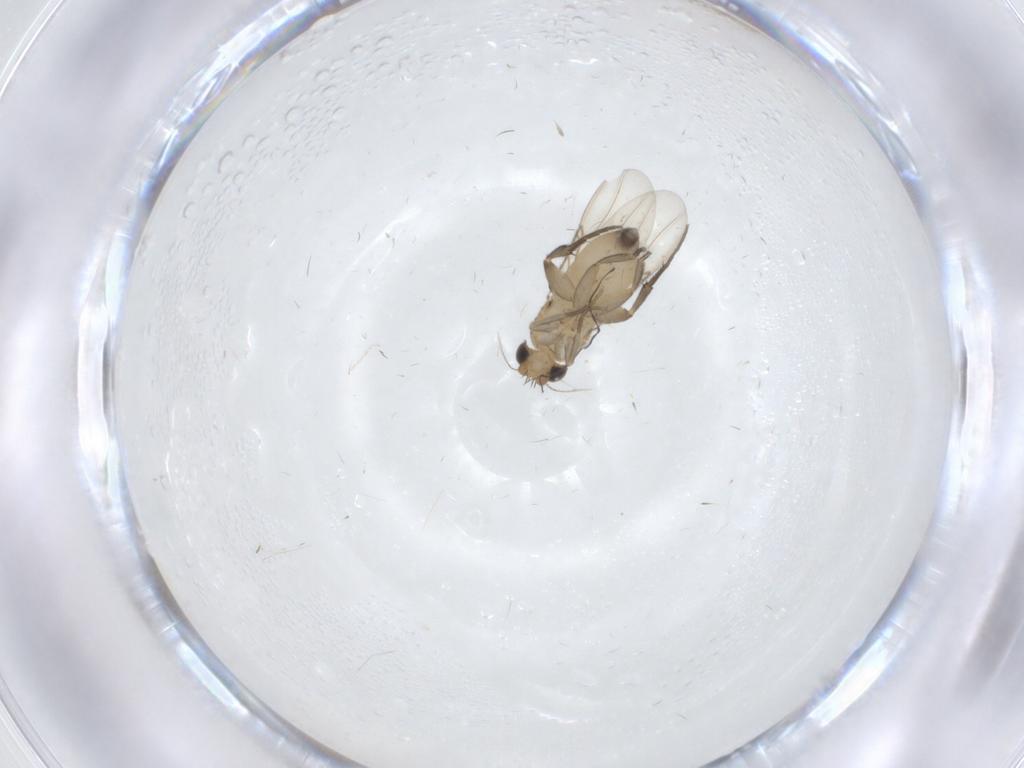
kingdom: Animalia
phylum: Arthropoda
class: Insecta
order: Diptera
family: Phoridae
